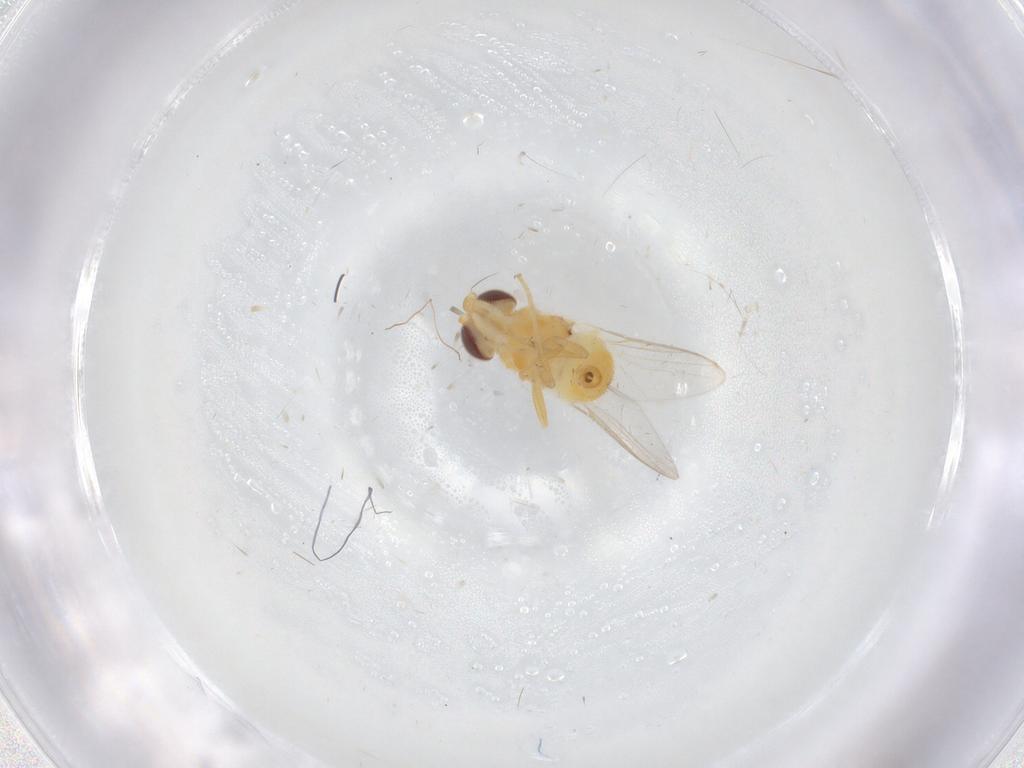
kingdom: Animalia
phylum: Arthropoda
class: Insecta
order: Diptera
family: Chloropidae
